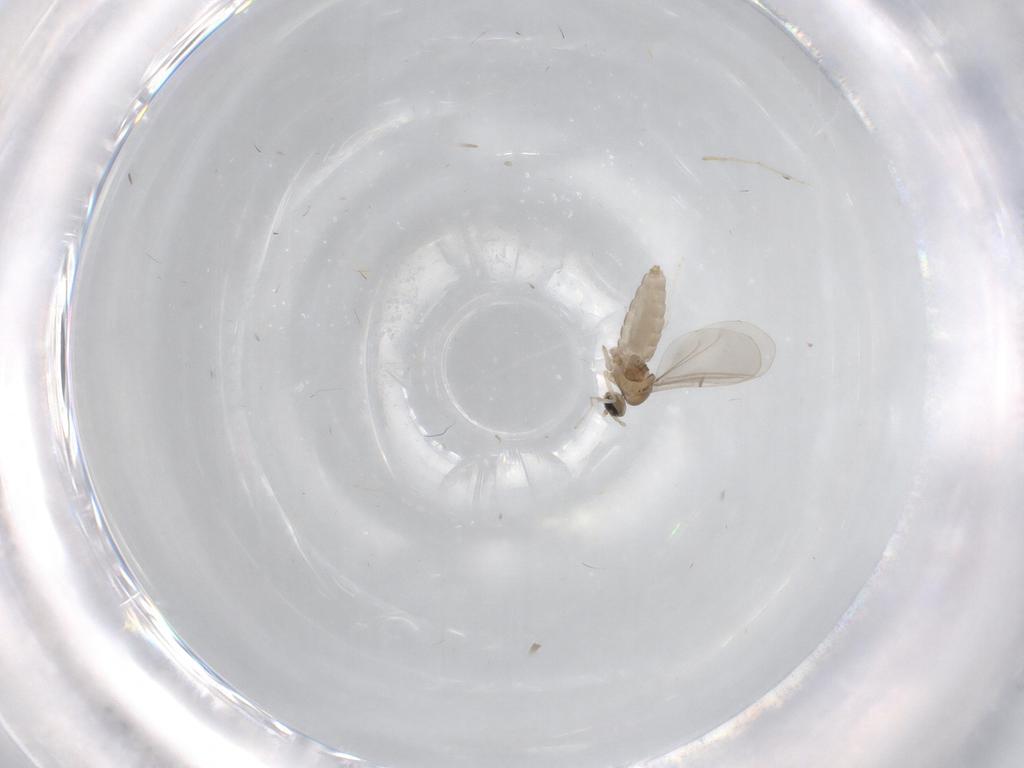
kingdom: Animalia
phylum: Arthropoda
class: Insecta
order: Diptera
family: Cecidomyiidae
